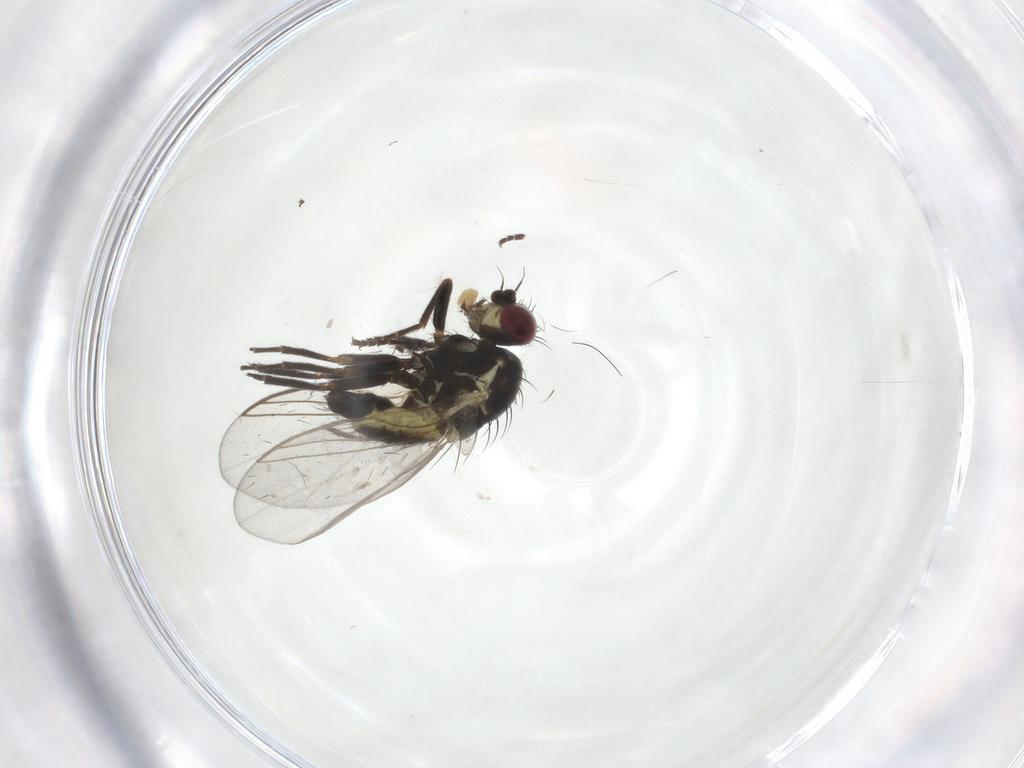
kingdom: Animalia
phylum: Arthropoda
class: Insecta
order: Diptera
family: Syrphidae
